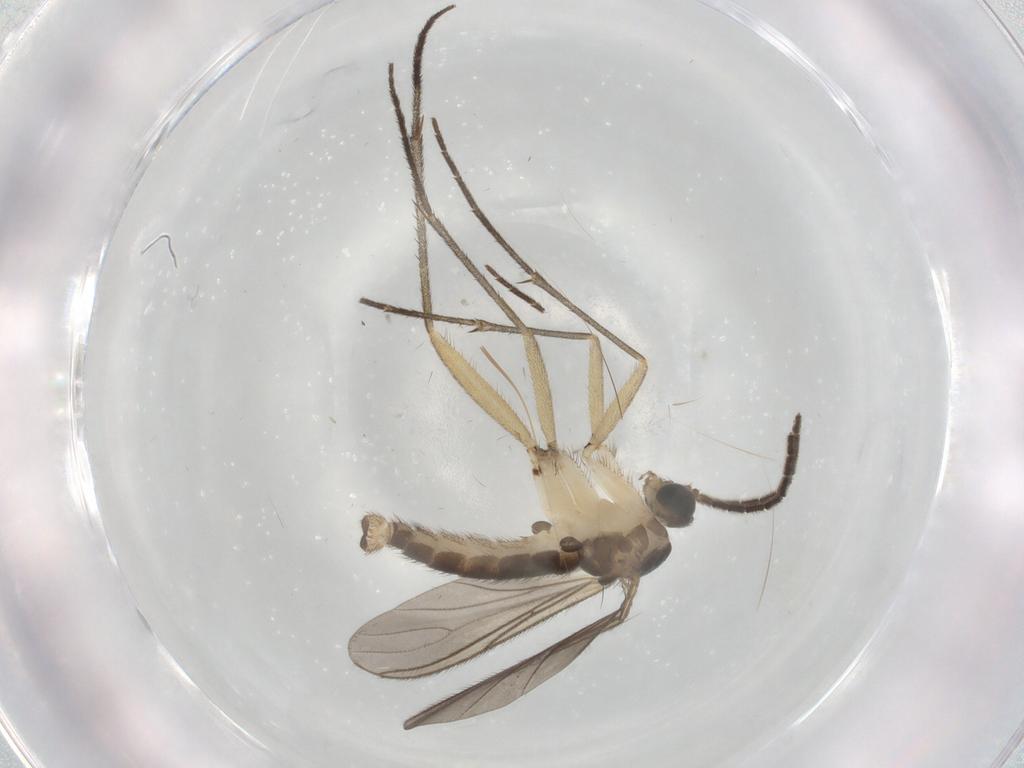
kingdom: Animalia
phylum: Arthropoda
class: Insecta
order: Diptera
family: Sciaridae
